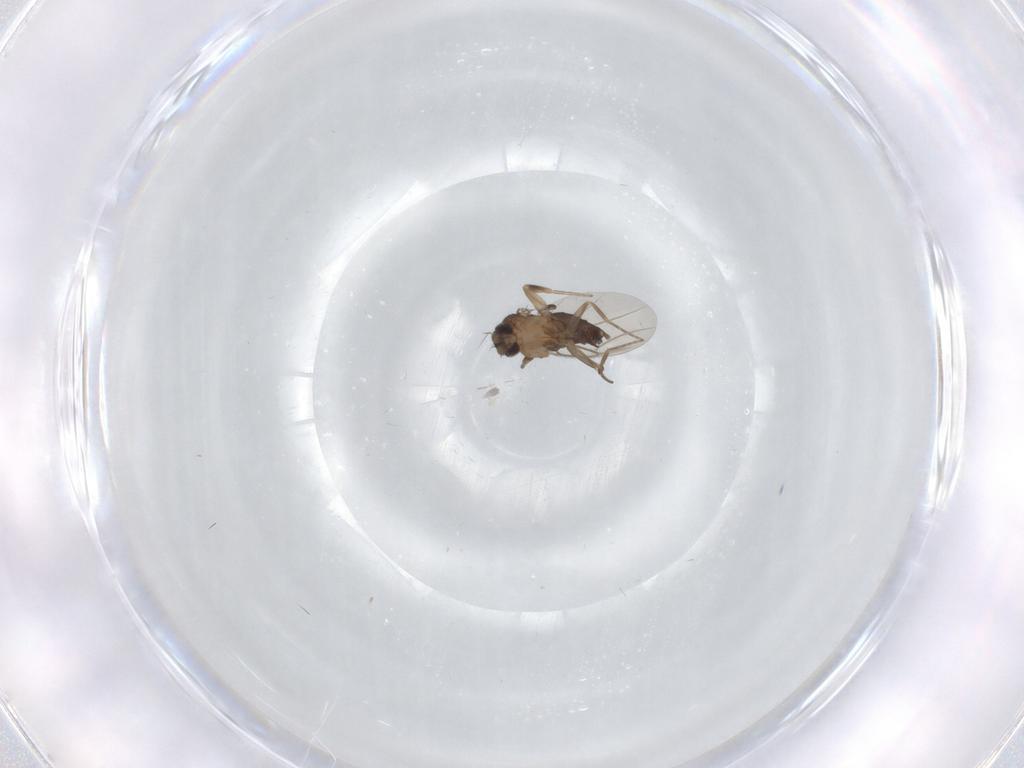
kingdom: Animalia
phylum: Arthropoda
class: Insecta
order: Diptera
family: Phoridae
